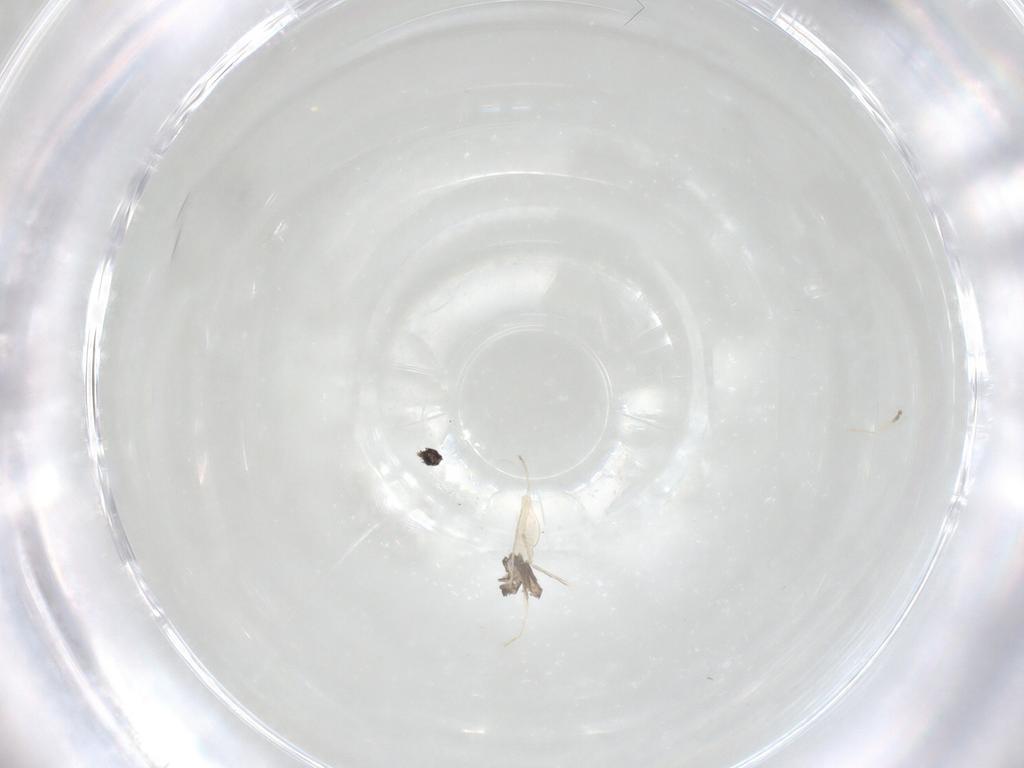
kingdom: Animalia
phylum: Arthropoda
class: Insecta
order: Diptera
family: Cecidomyiidae
